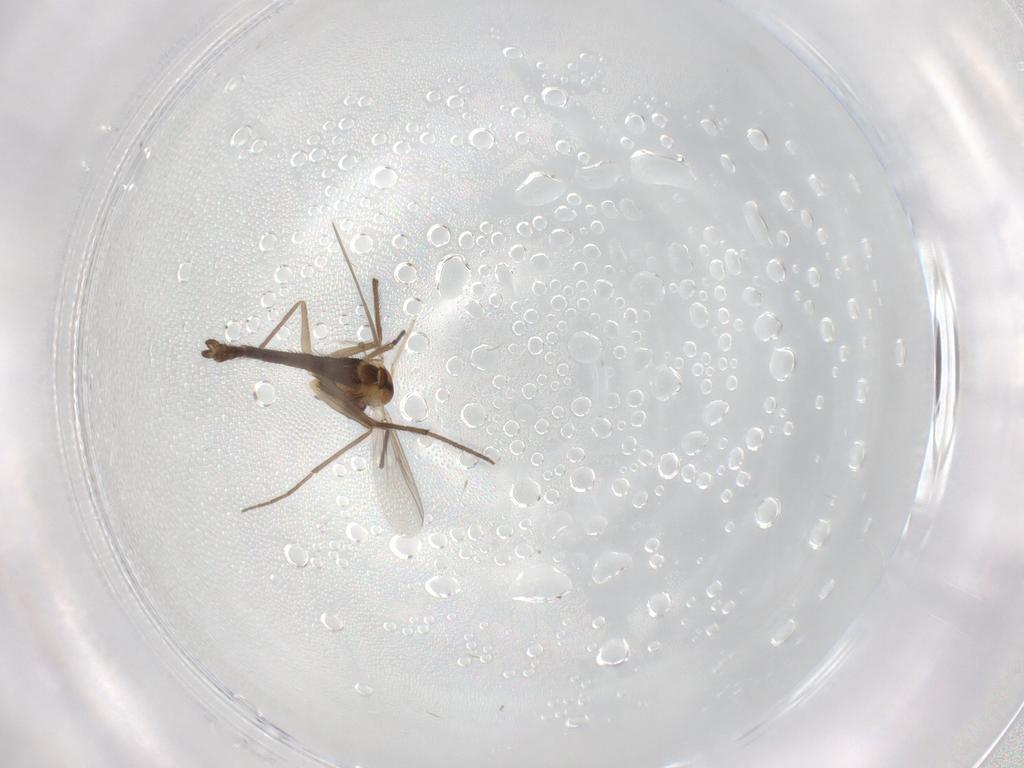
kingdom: Animalia
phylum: Arthropoda
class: Insecta
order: Diptera
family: Chironomidae
